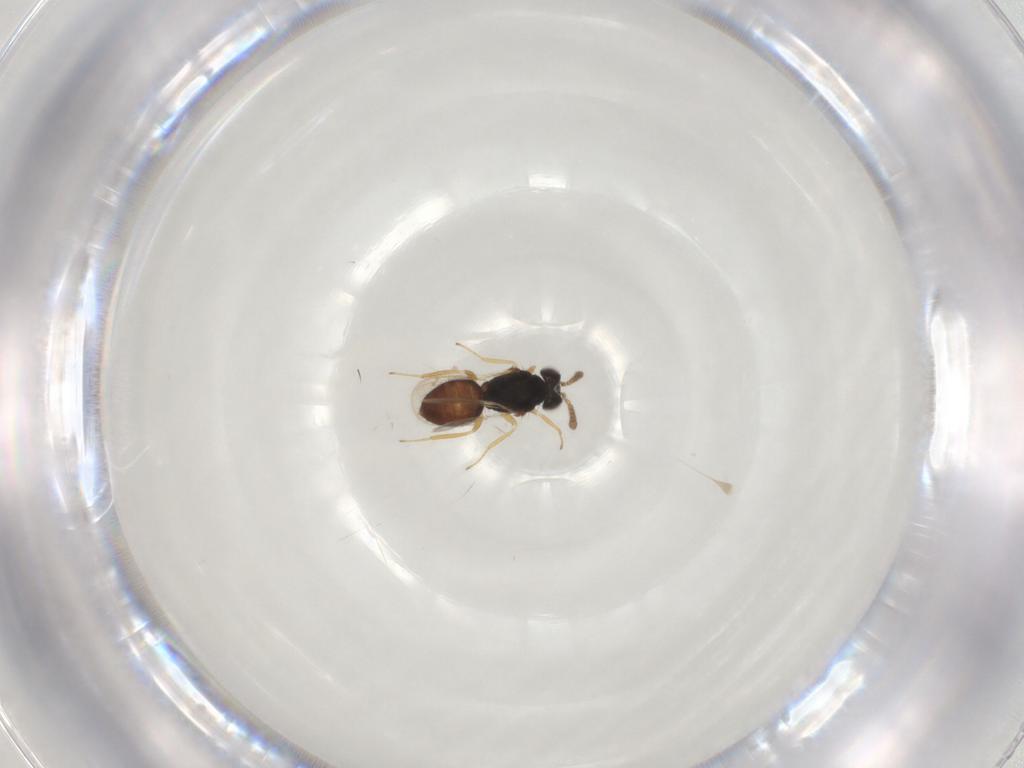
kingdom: Animalia
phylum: Arthropoda
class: Insecta
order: Hymenoptera
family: Eulophidae
